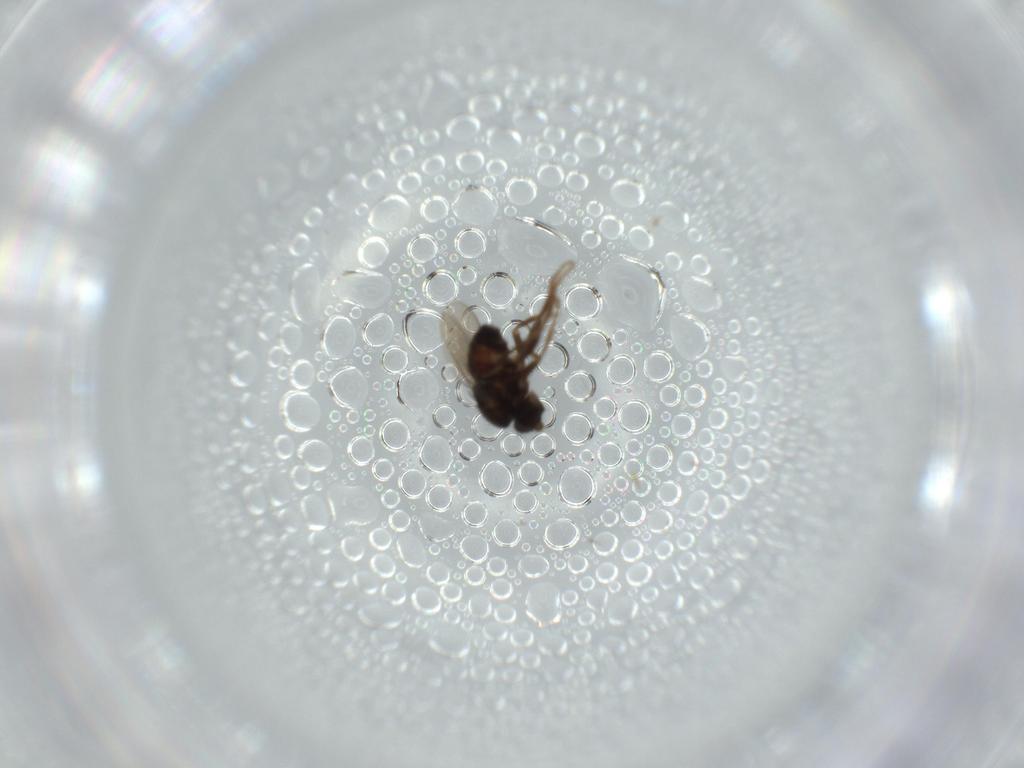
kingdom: Animalia
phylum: Arthropoda
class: Insecta
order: Diptera
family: Sphaeroceridae
